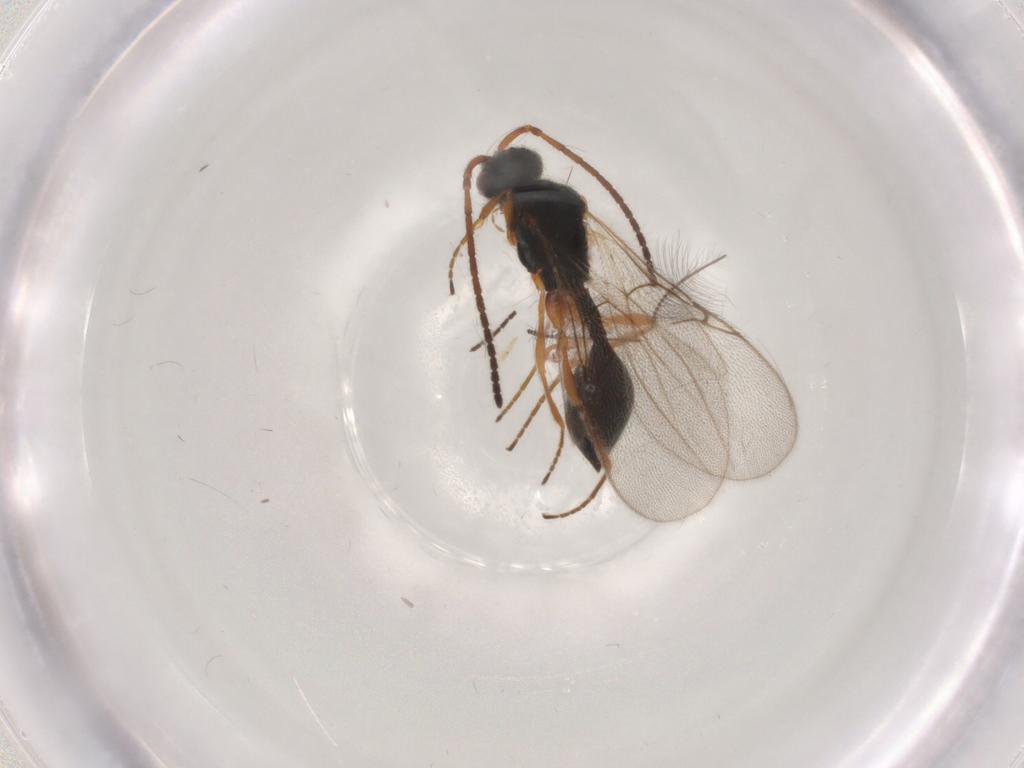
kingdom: Animalia
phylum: Arthropoda
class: Insecta
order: Hymenoptera
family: Diapriidae
